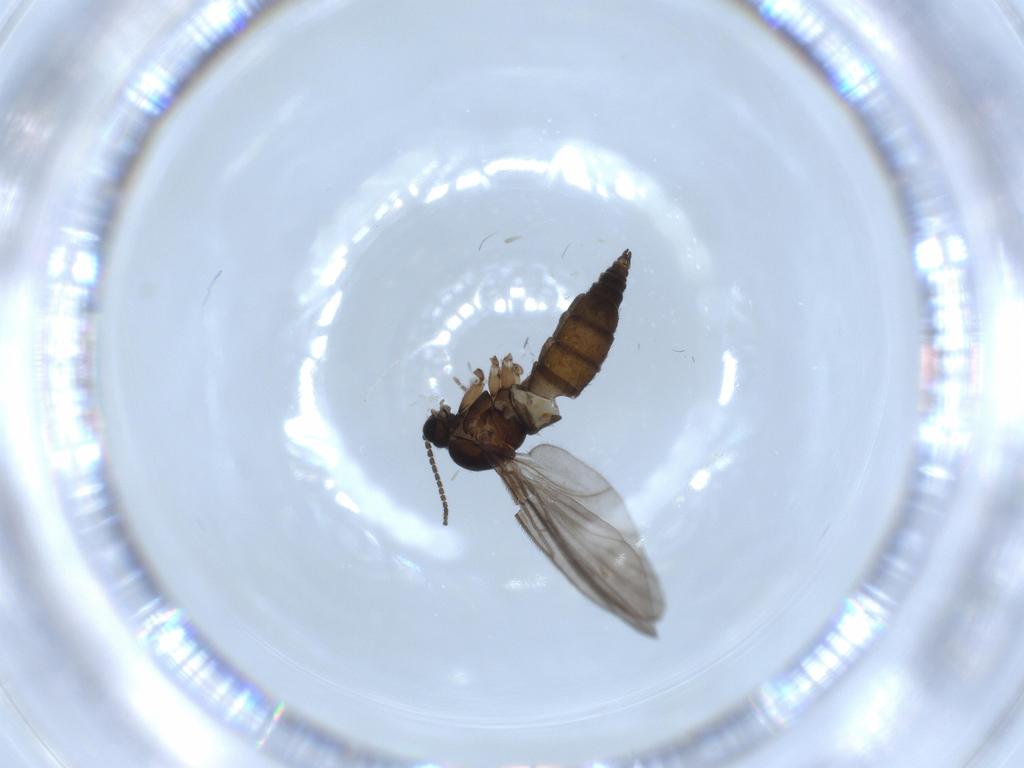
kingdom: Animalia
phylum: Arthropoda
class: Insecta
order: Diptera
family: Sciaridae
